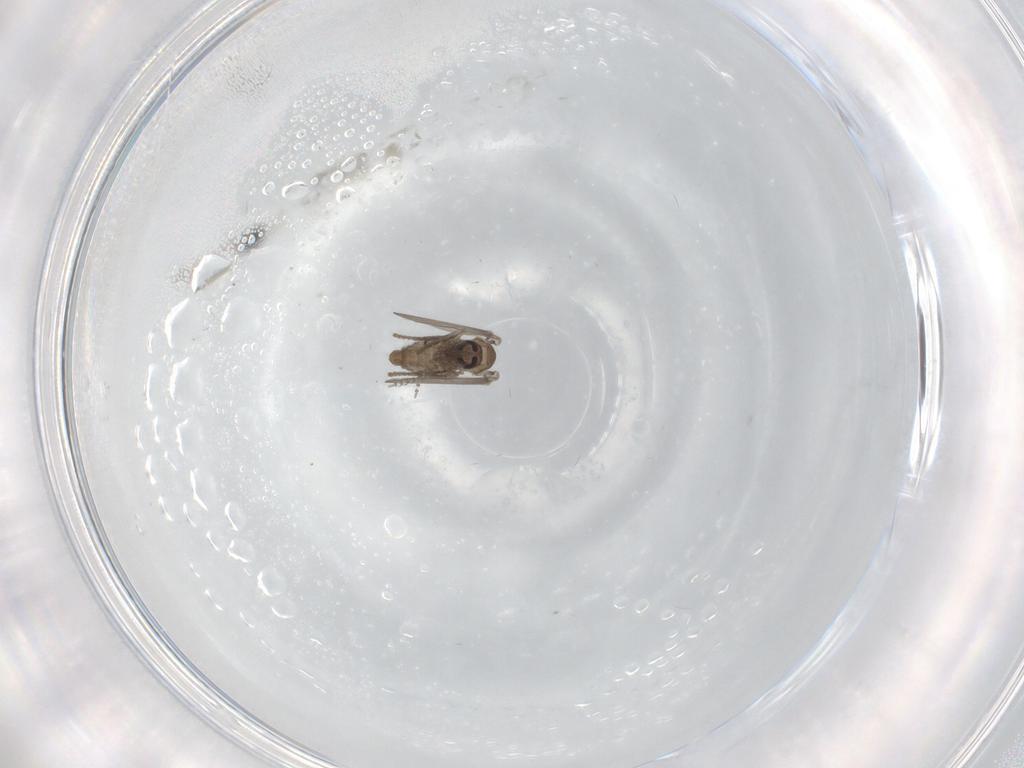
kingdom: Animalia
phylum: Arthropoda
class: Insecta
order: Diptera
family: Psychodidae
